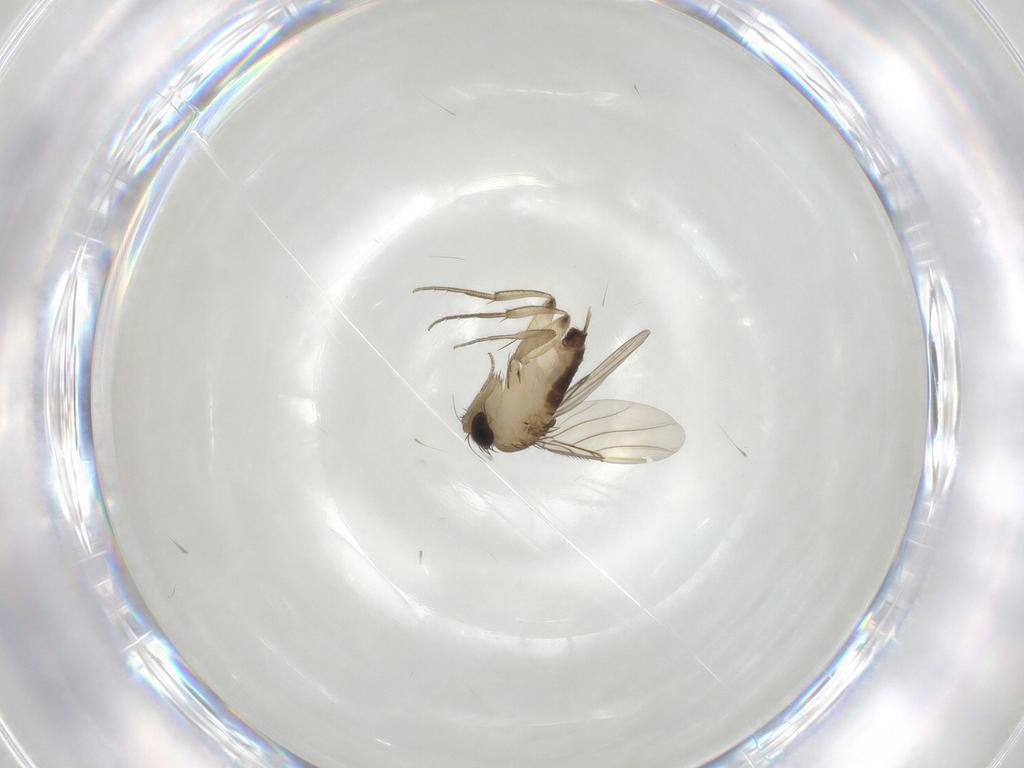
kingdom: Animalia
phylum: Arthropoda
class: Insecta
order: Diptera
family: Phoridae
